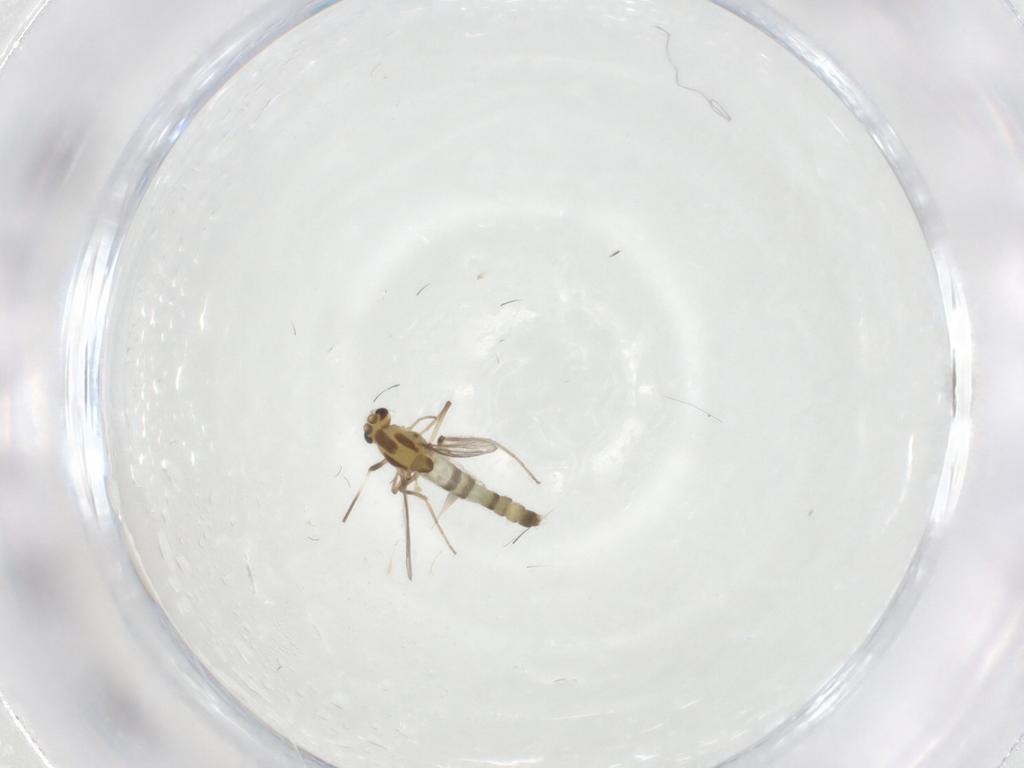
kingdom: Animalia
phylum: Arthropoda
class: Insecta
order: Diptera
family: Chironomidae
